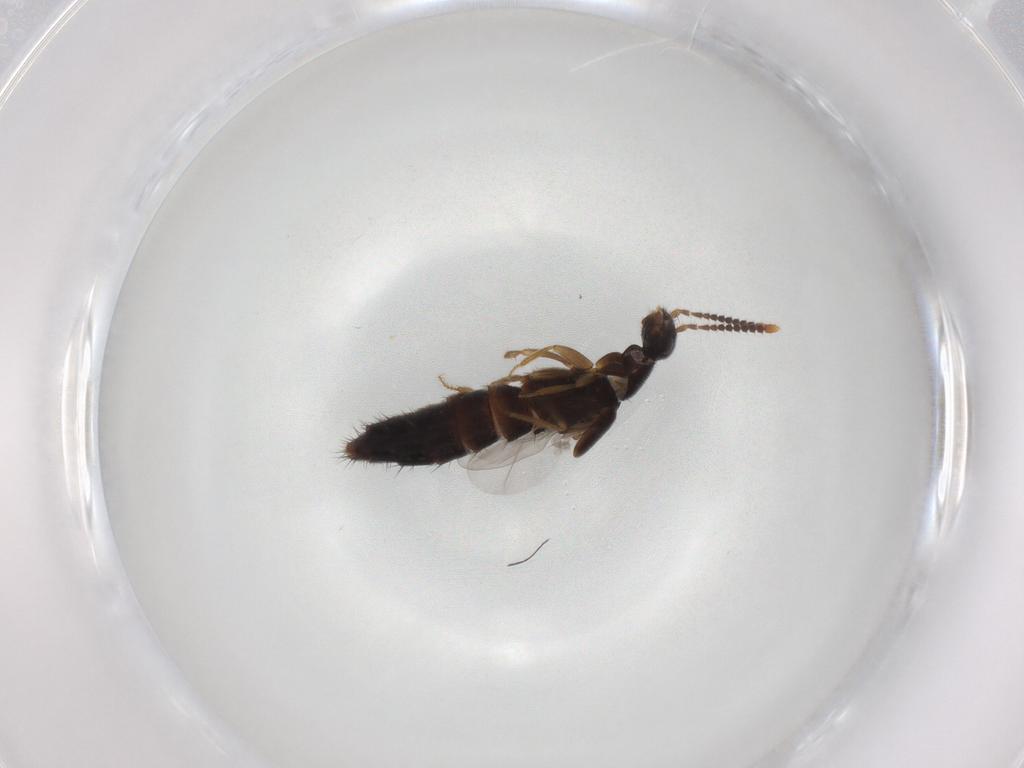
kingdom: Animalia
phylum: Arthropoda
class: Insecta
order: Coleoptera
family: Staphylinidae
